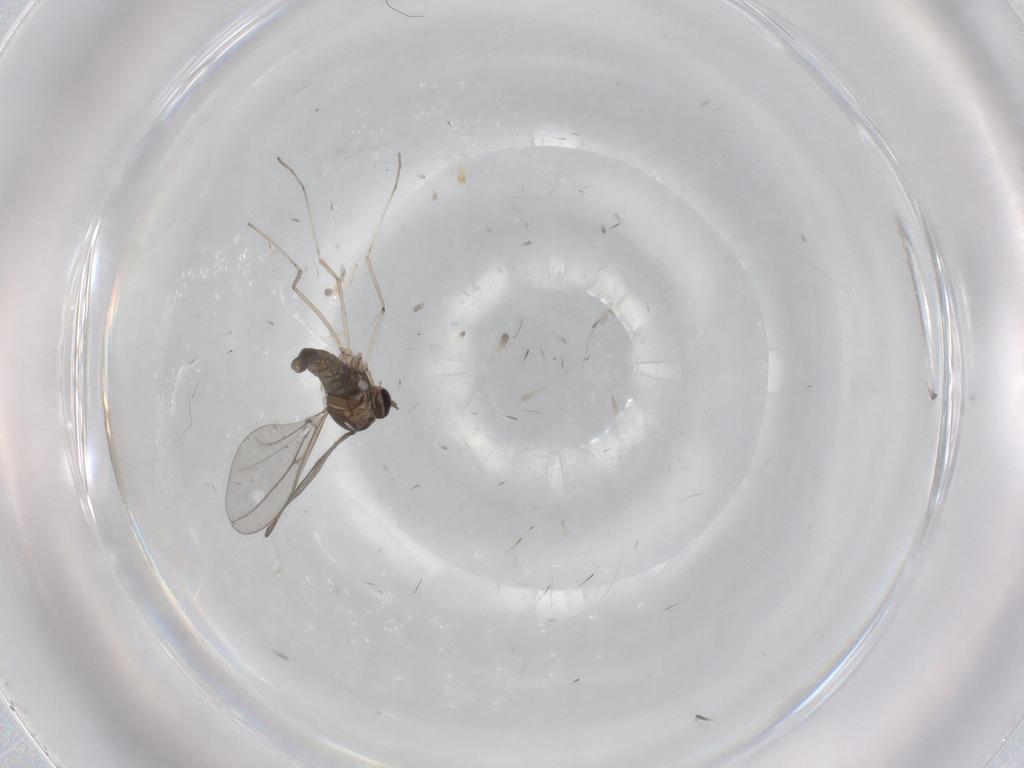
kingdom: Animalia
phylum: Arthropoda
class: Insecta
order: Diptera
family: Cecidomyiidae
